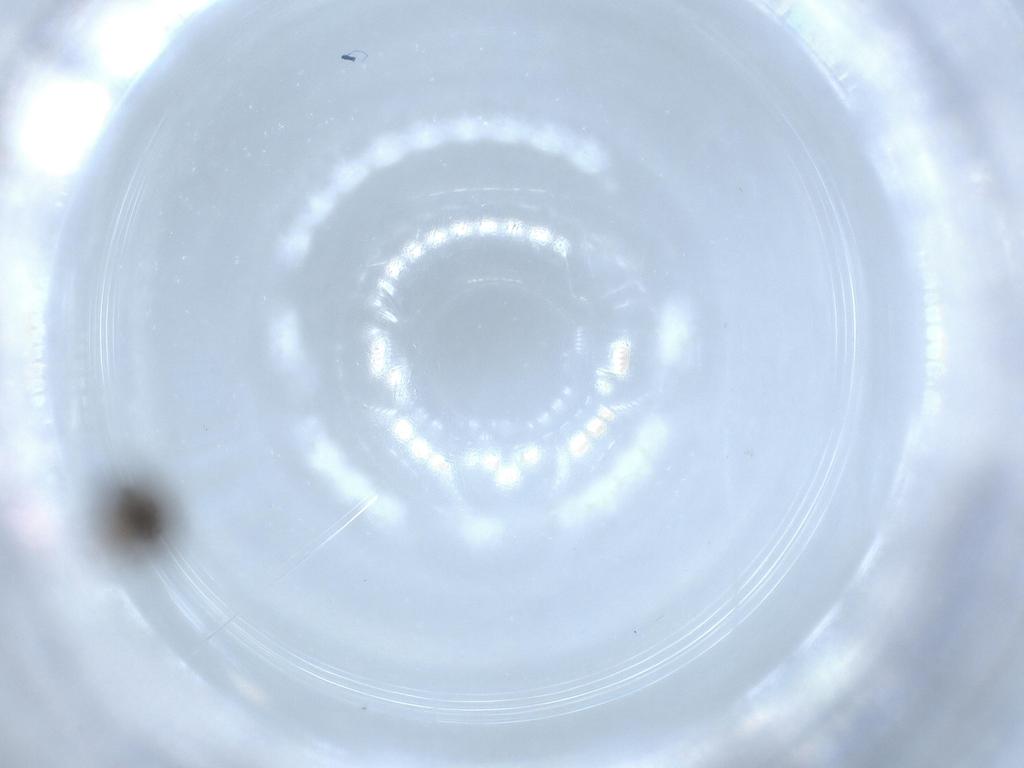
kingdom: Animalia
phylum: Arthropoda
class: Insecta
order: Hymenoptera
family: Scelionidae
